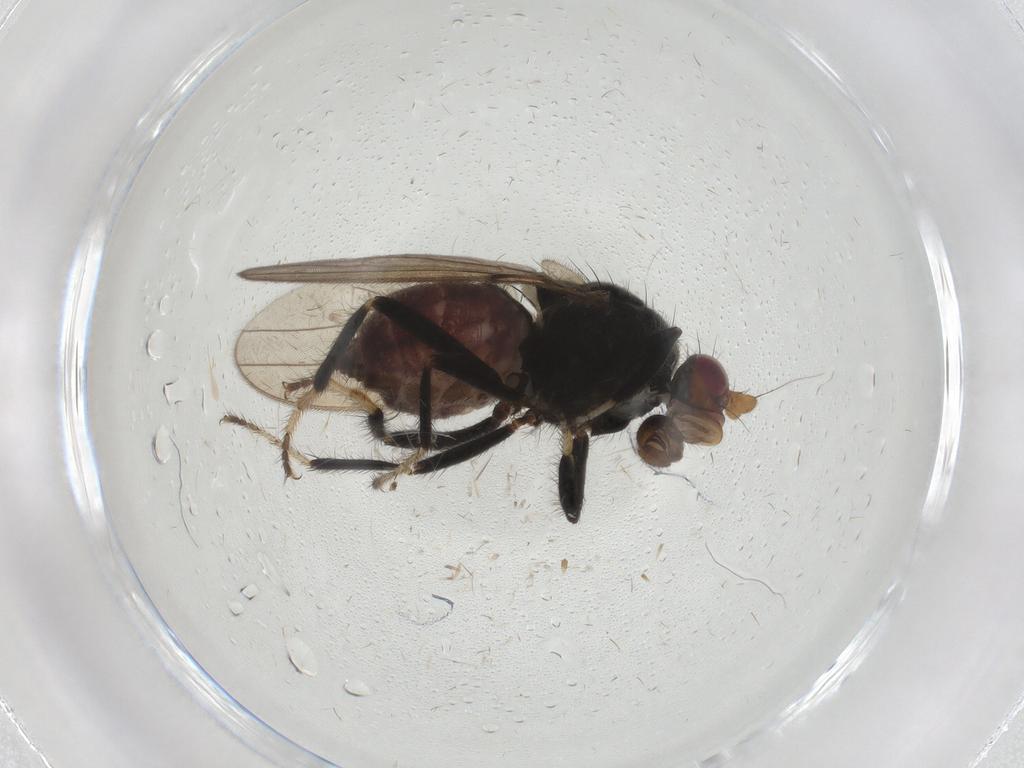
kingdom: Animalia
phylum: Arthropoda
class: Insecta
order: Diptera
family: Sphaeroceridae
